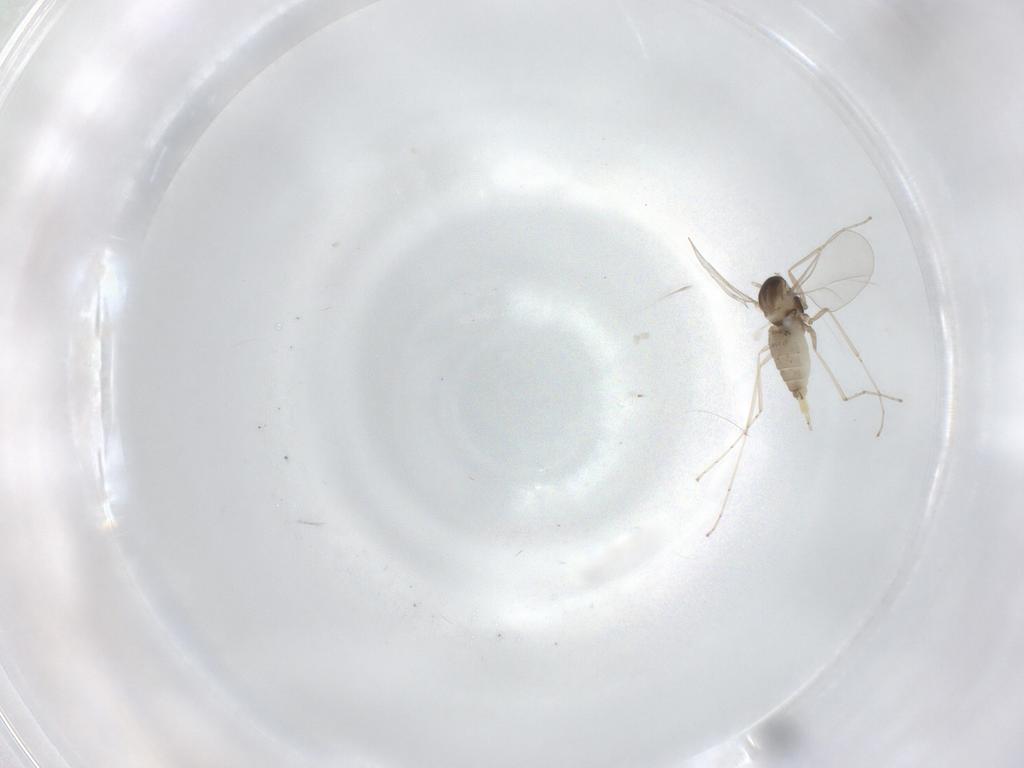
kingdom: Animalia
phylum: Arthropoda
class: Insecta
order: Diptera
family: Cecidomyiidae
